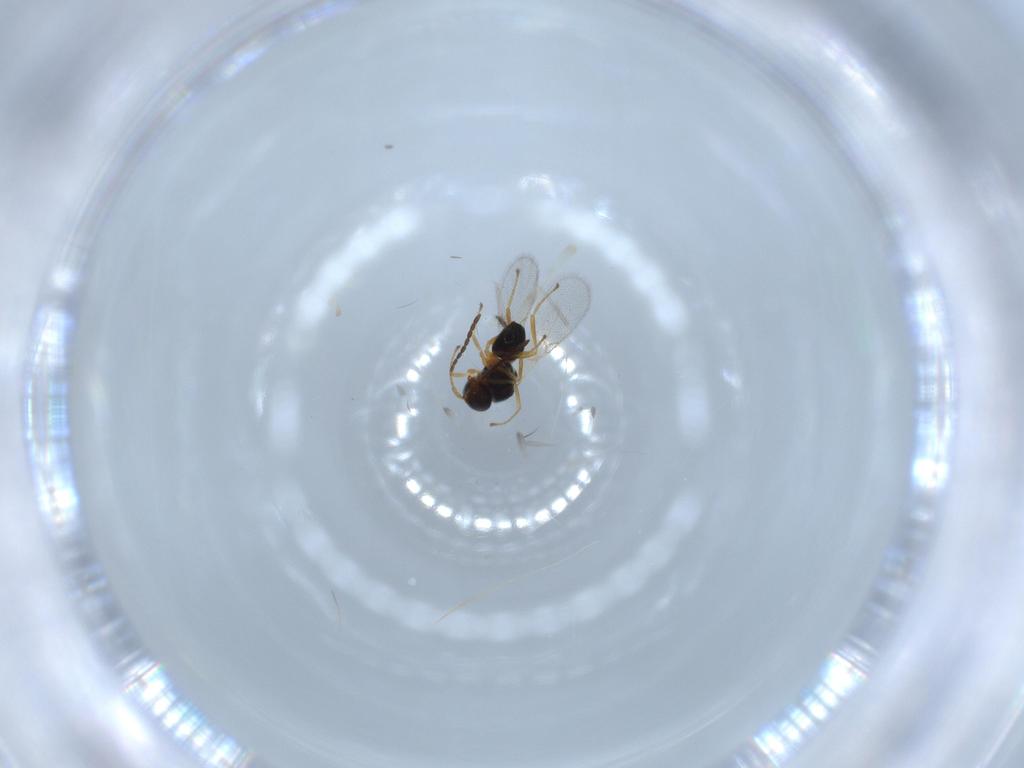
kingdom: Animalia
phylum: Arthropoda
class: Insecta
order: Hymenoptera
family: Figitidae
